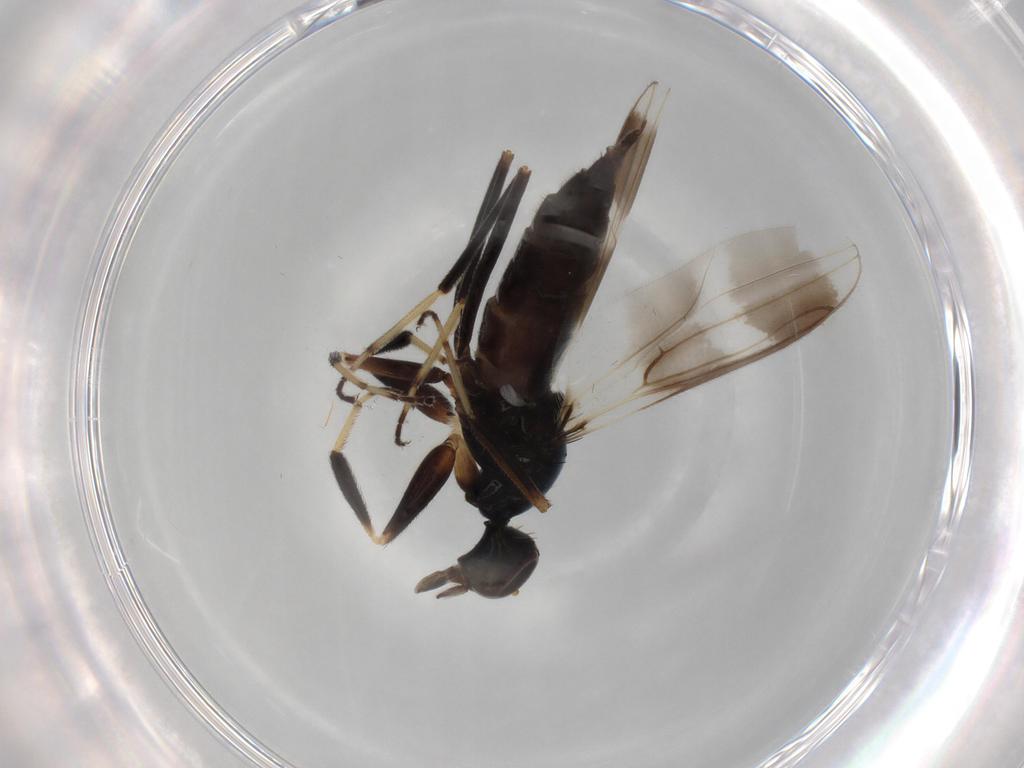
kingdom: Animalia
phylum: Arthropoda
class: Insecta
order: Diptera
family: Hybotidae
